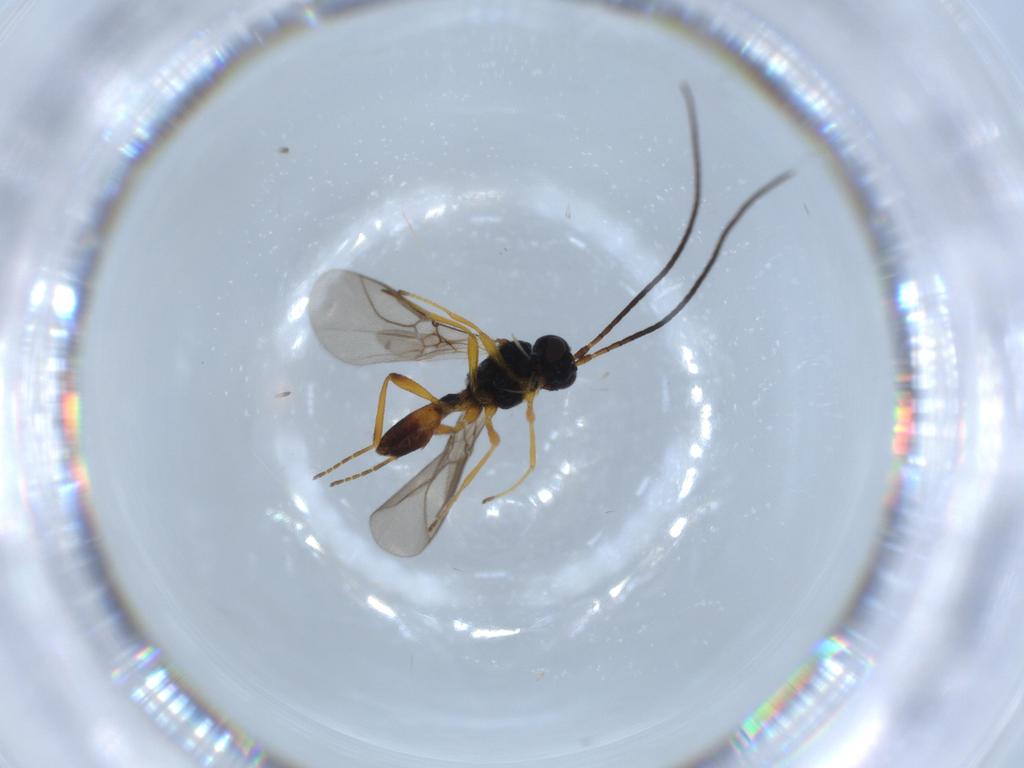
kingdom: Animalia
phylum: Arthropoda
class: Insecta
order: Hymenoptera
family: Braconidae
